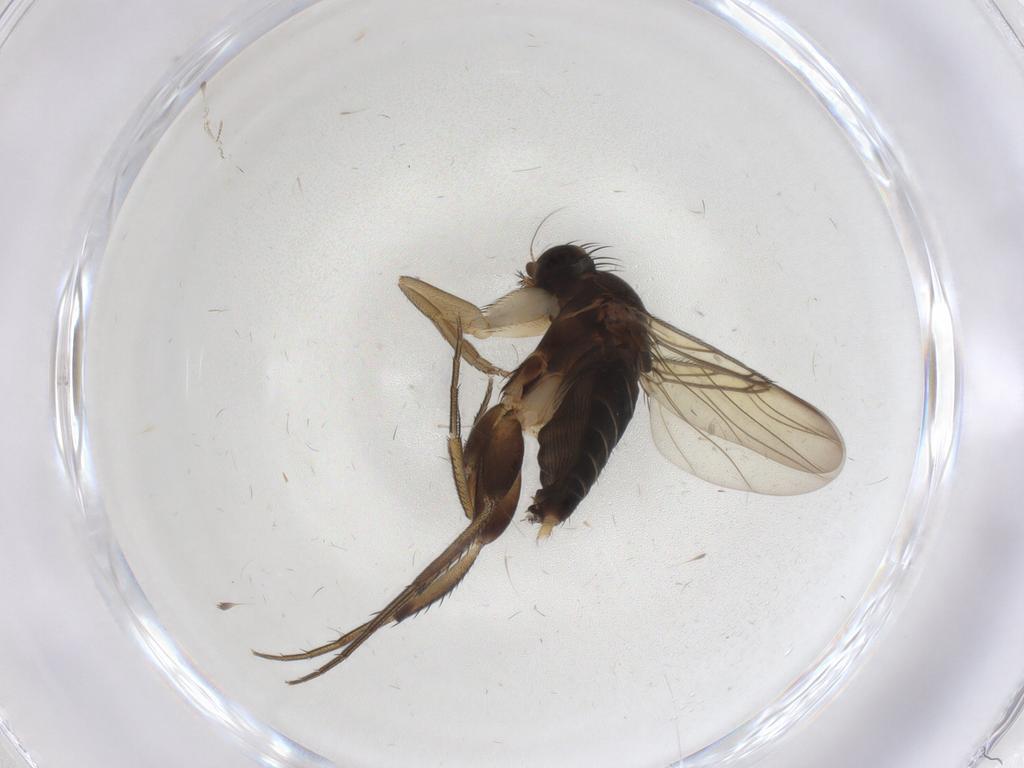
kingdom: Animalia
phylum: Arthropoda
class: Insecta
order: Diptera
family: Phoridae
